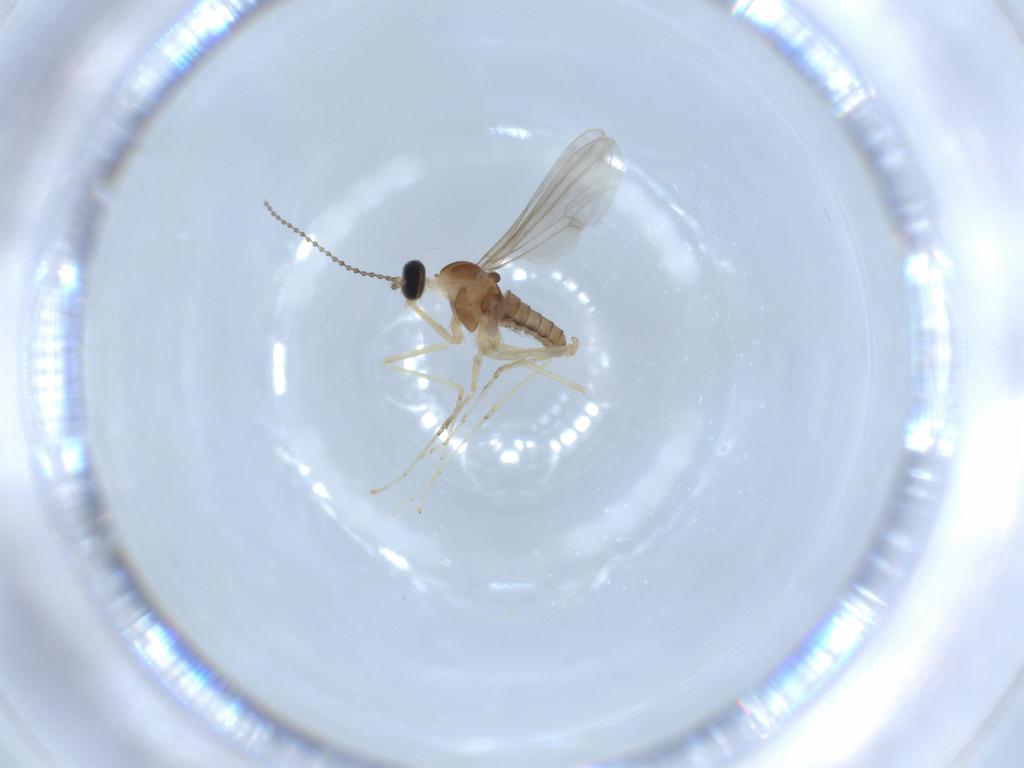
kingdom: Animalia
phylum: Arthropoda
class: Insecta
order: Diptera
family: Cecidomyiidae
